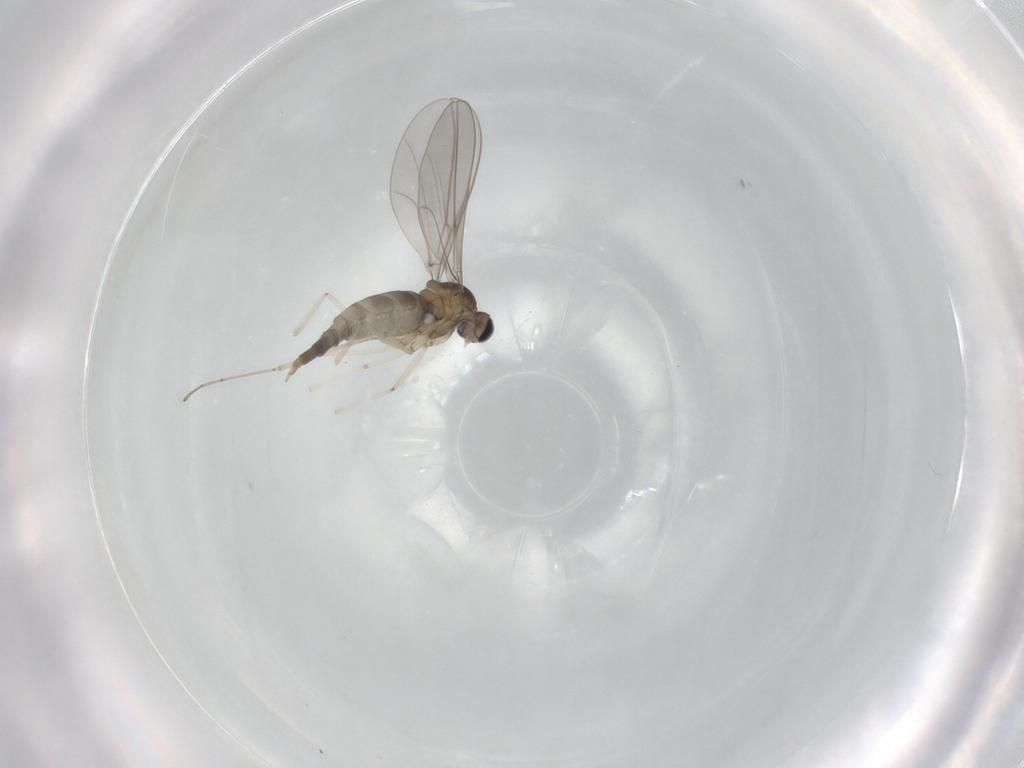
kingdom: Animalia
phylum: Arthropoda
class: Insecta
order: Diptera
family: Cecidomyiidae
